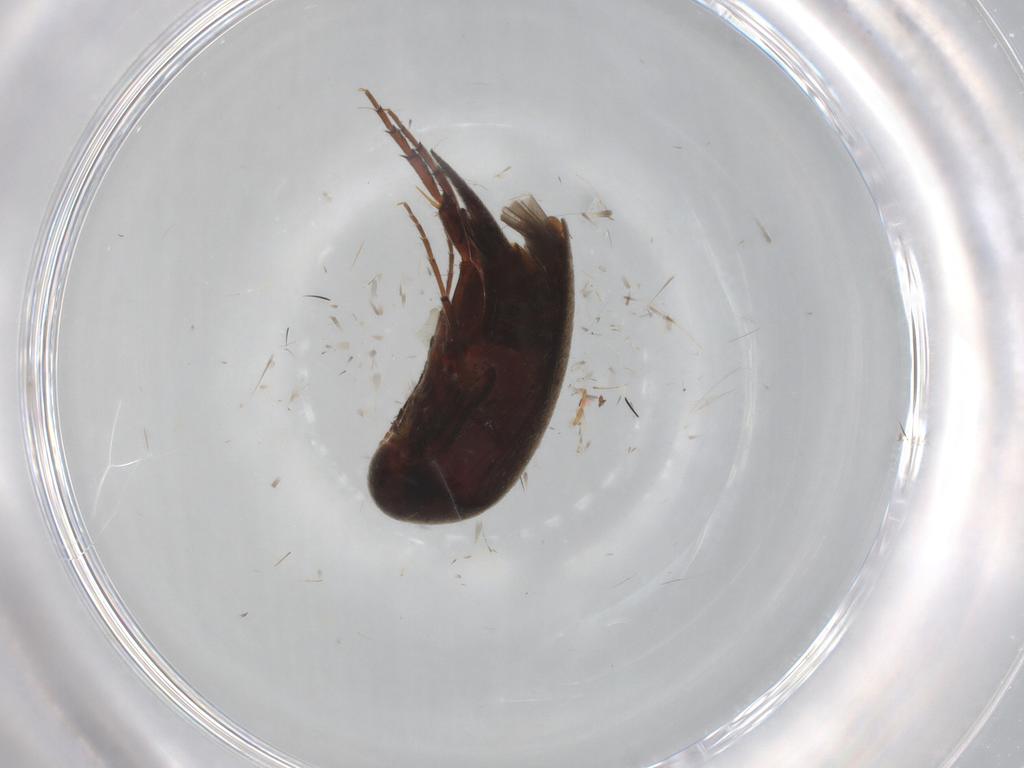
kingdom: Animalia
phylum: Arthropoda
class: Insecta
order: Coleoptera
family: Mordellidae
